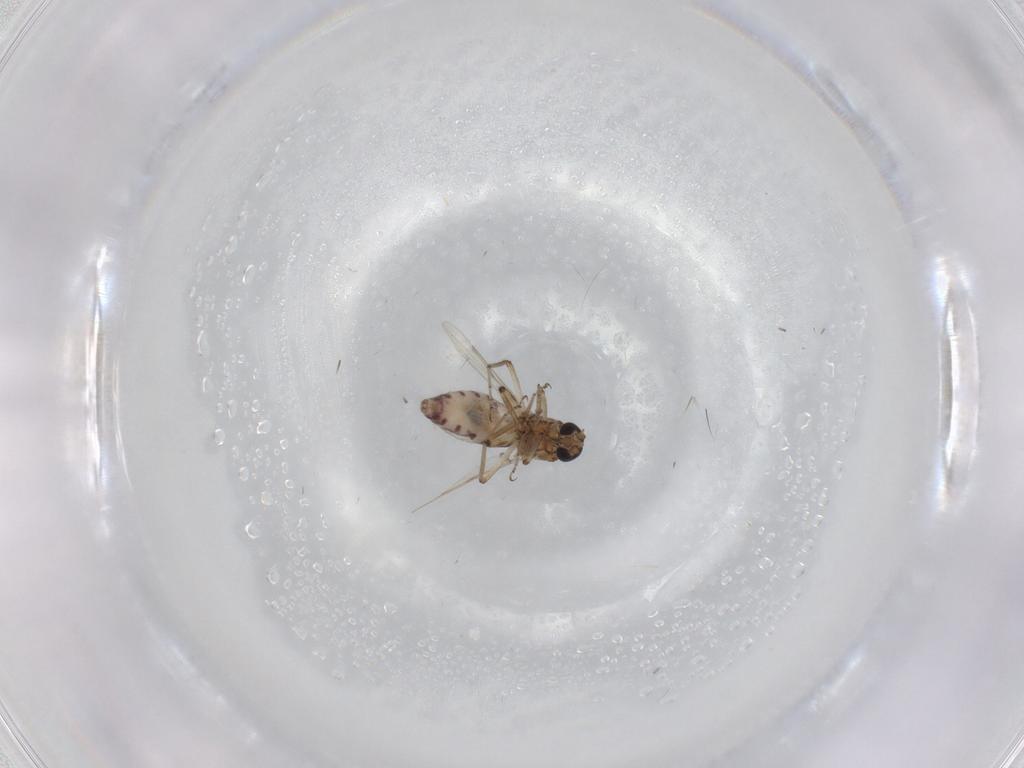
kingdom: Animalia
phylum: Arthropoda
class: Insecta
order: Diptera
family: Cecidomyiidae
